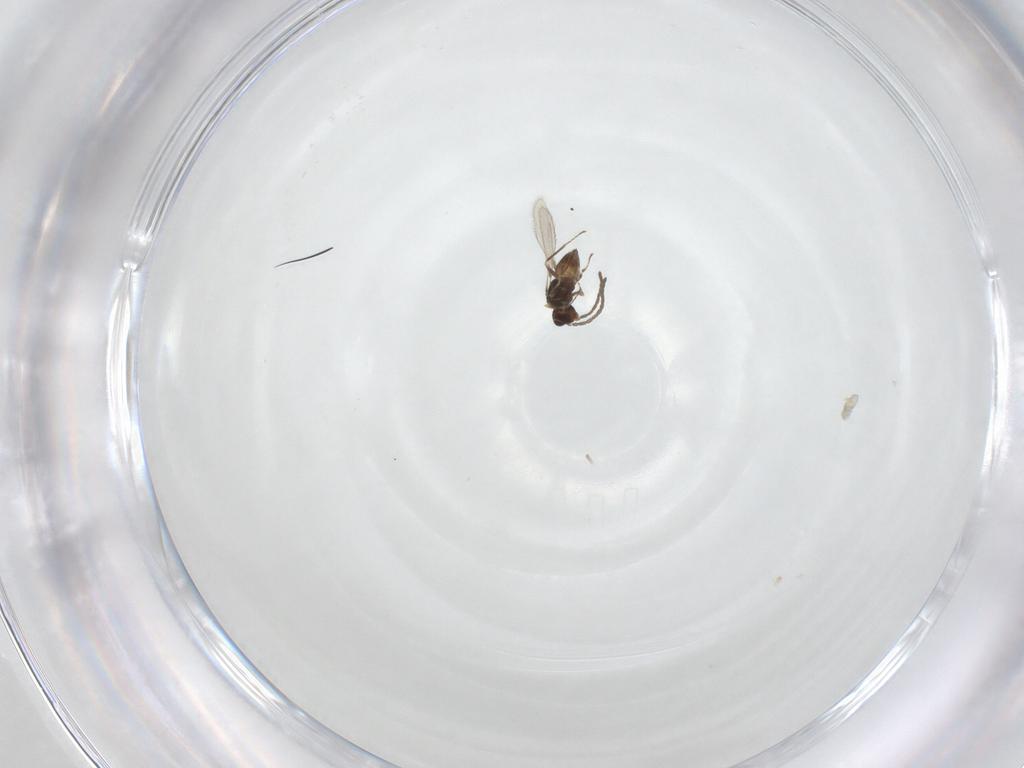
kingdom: Animalia
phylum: Arthropoda
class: Insecta
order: Hymenoptera
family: Bethylidae
